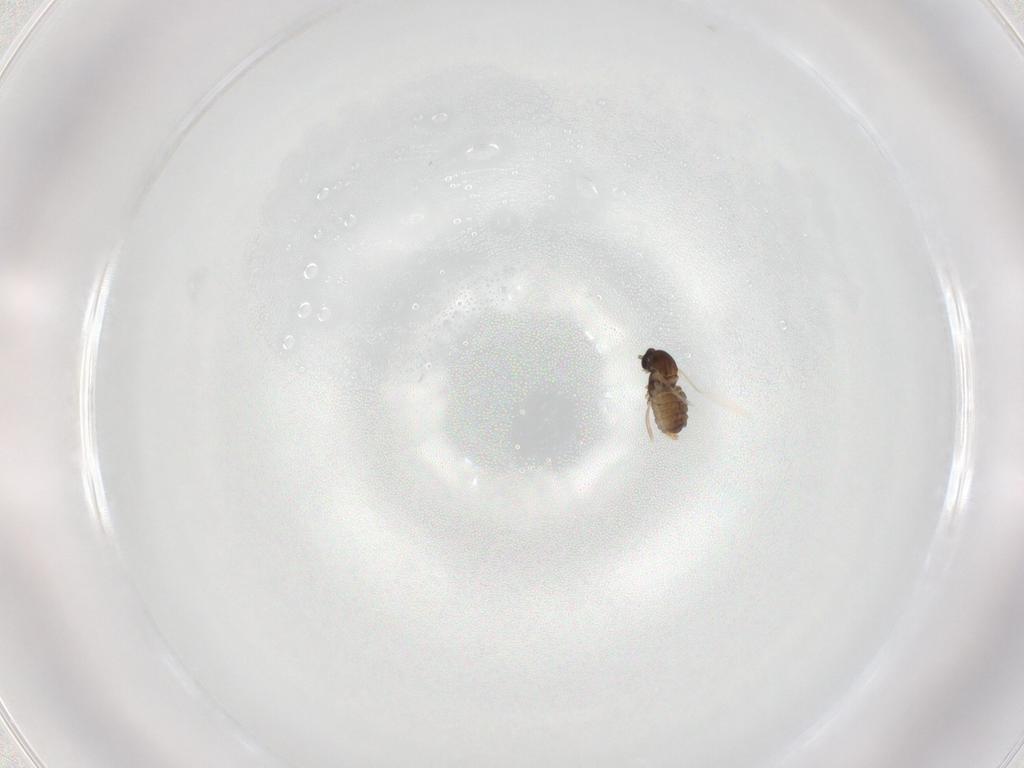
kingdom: Animalia
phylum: Arthropoda
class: Insecta
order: Diptera
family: Cecidomyiidae
